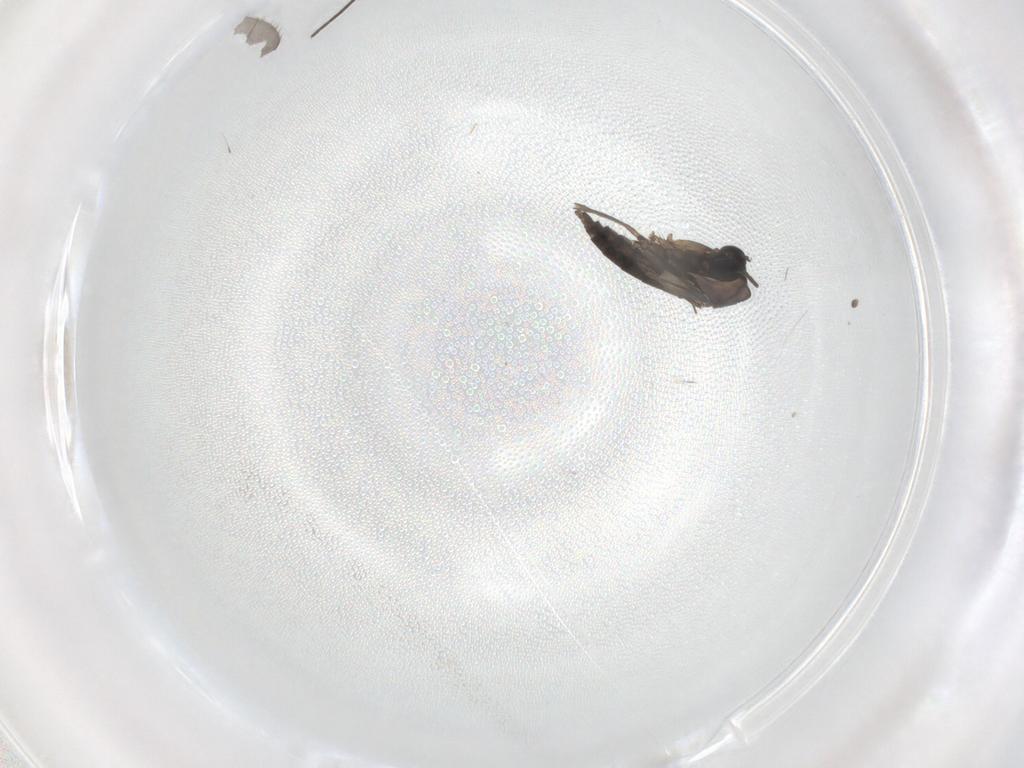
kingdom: Animalia
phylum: Arthropoda
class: Insecta
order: Diptera
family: Sciaridae
